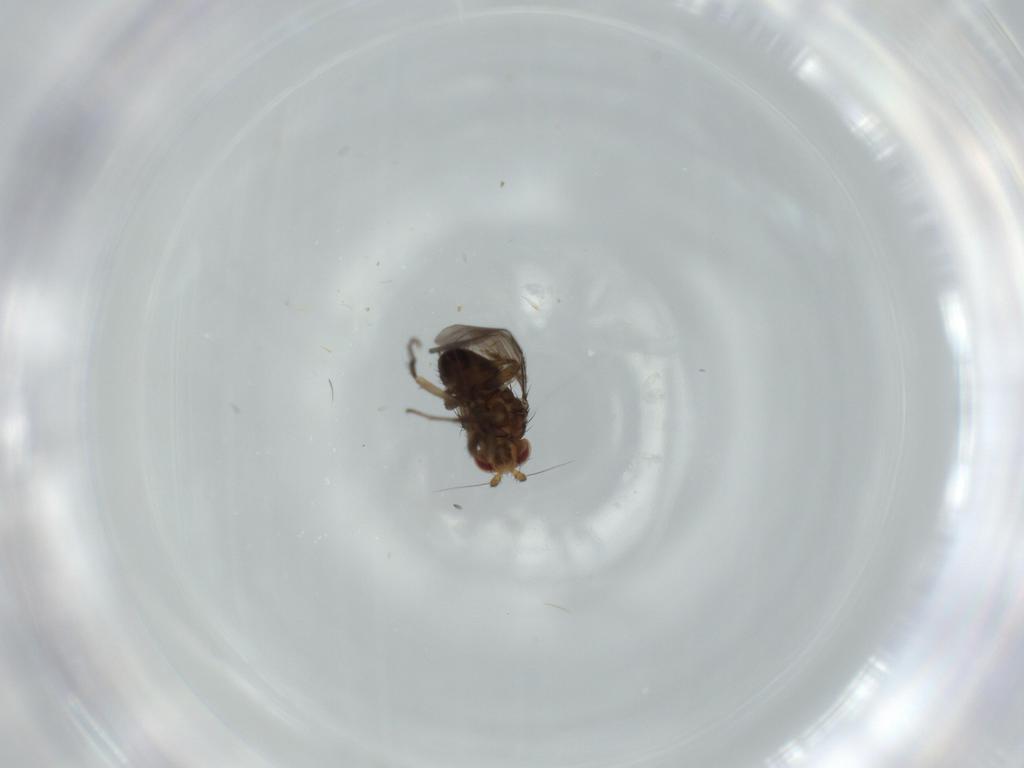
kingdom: Animalia
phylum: Arthropoda
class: Insecta
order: Diptera
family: Sphaeroceridae
